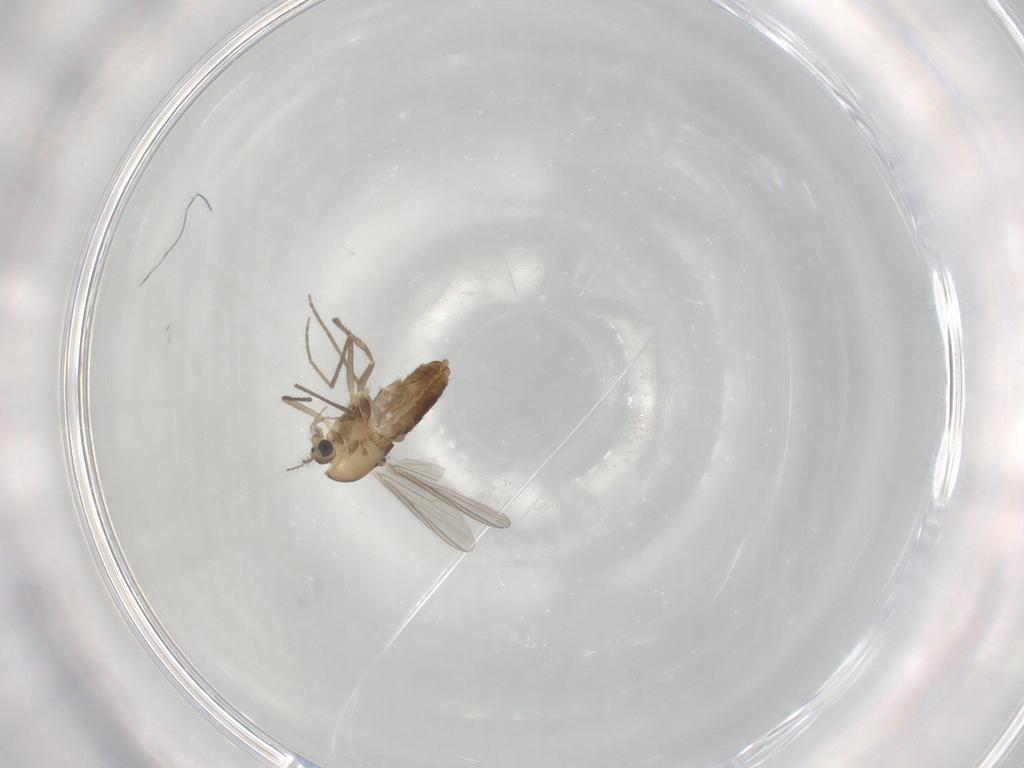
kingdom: Animalia
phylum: Arthropoda
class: Insecta
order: Diptera
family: Chironomidae
